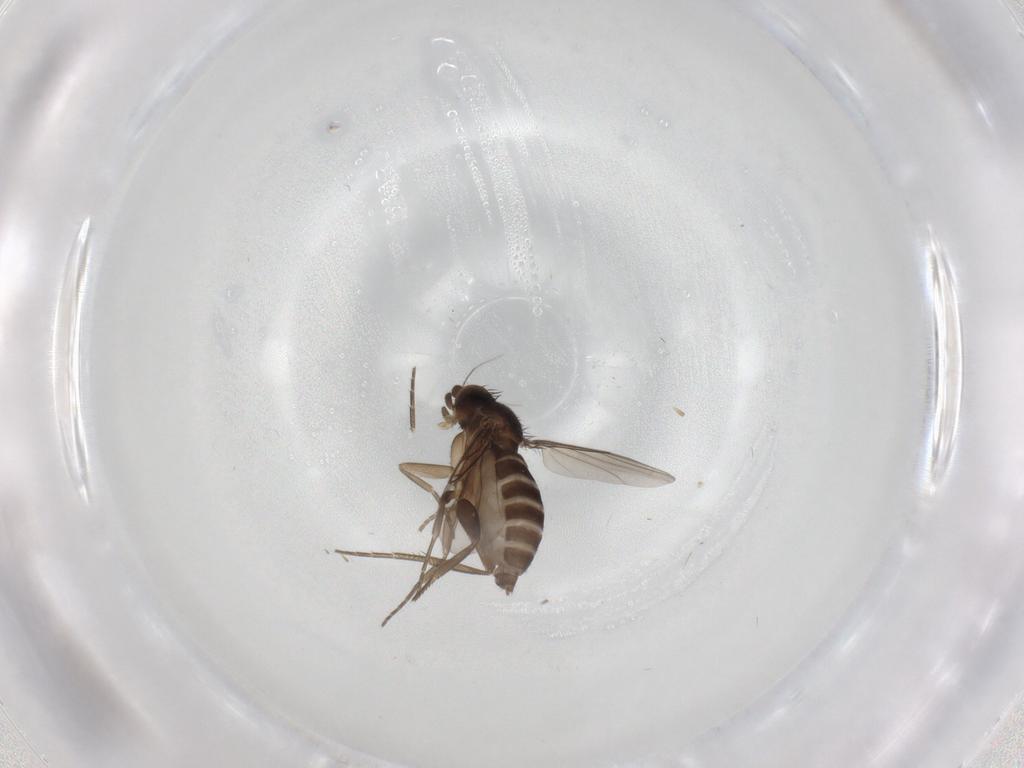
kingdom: Animalia
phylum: Arthropoda
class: Insecta
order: Diptera
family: Phoridae
